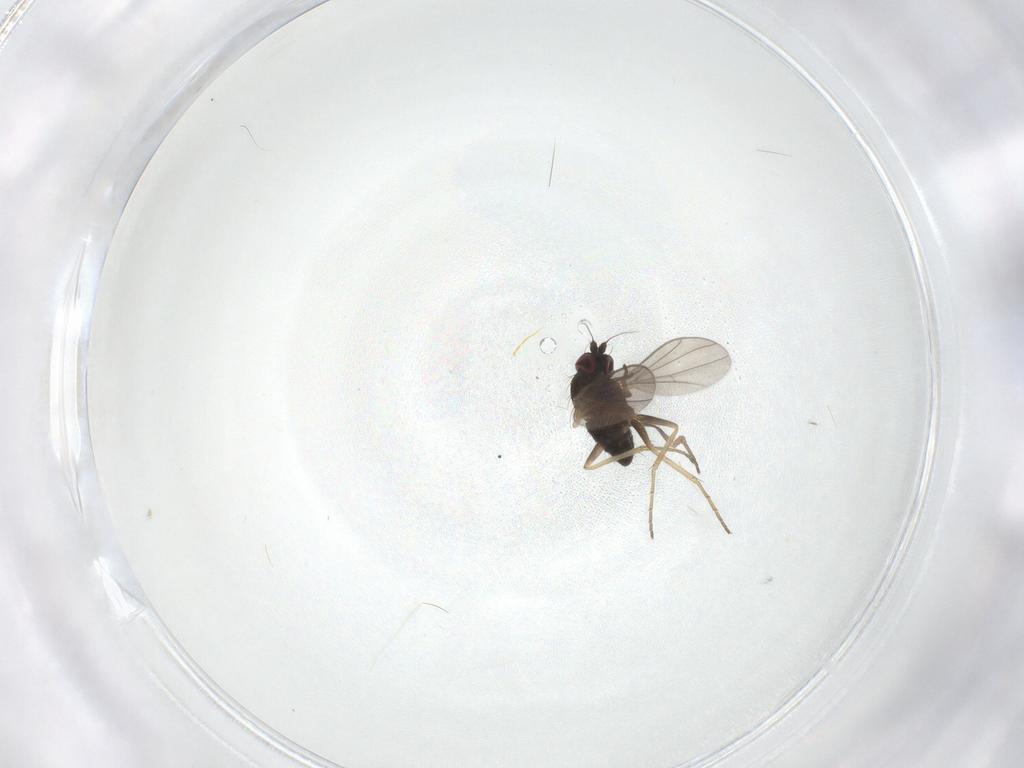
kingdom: Animalia
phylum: Arthropoda
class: Insecta
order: Diptera
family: Dolichopodidae
